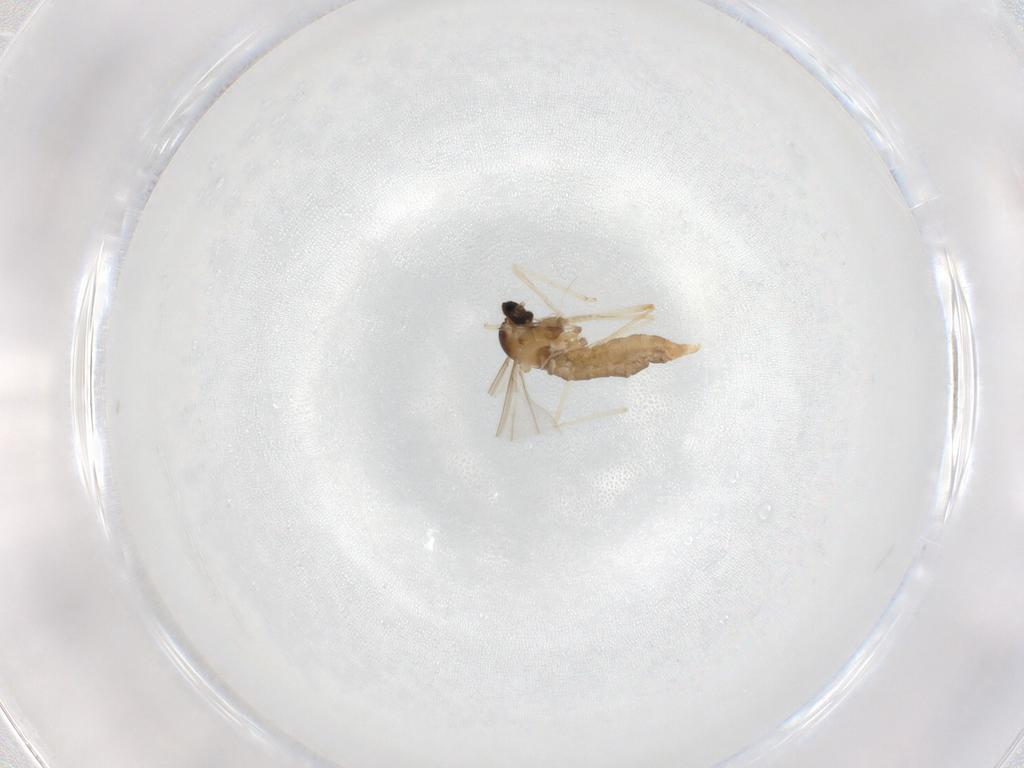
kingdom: Animalia
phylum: Arthropoda
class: Insecta
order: Diptera
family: Cecidomyiidae
